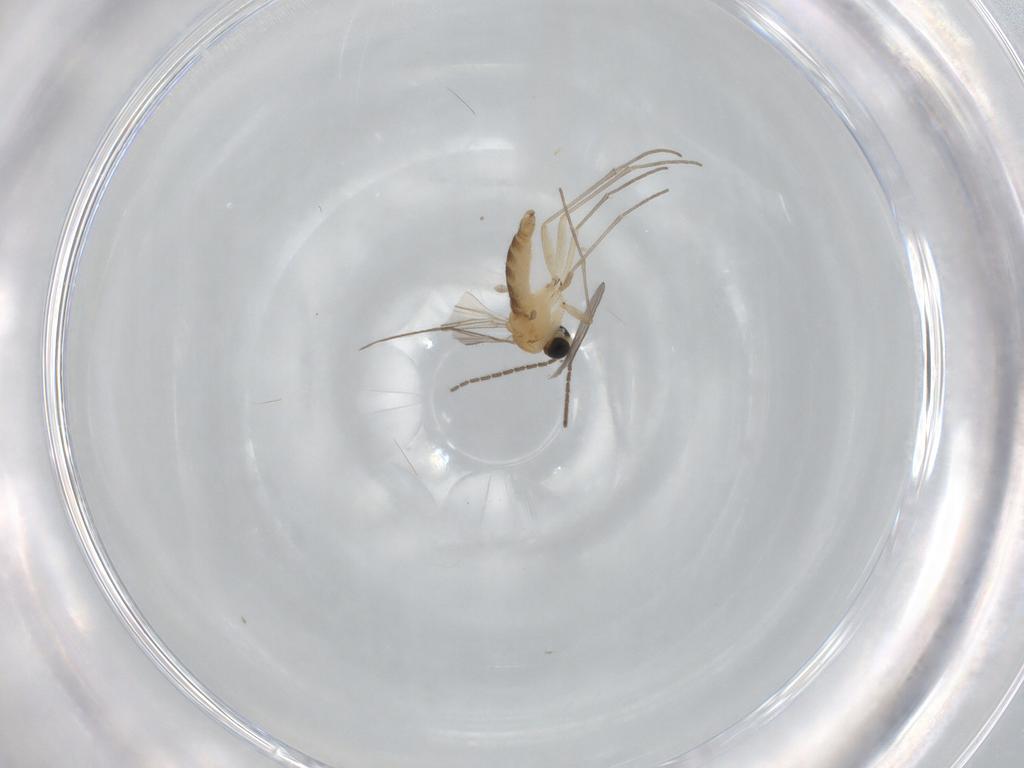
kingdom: Animalia
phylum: Arthropoda
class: Insecta
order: Diptera
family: Sciaridae
